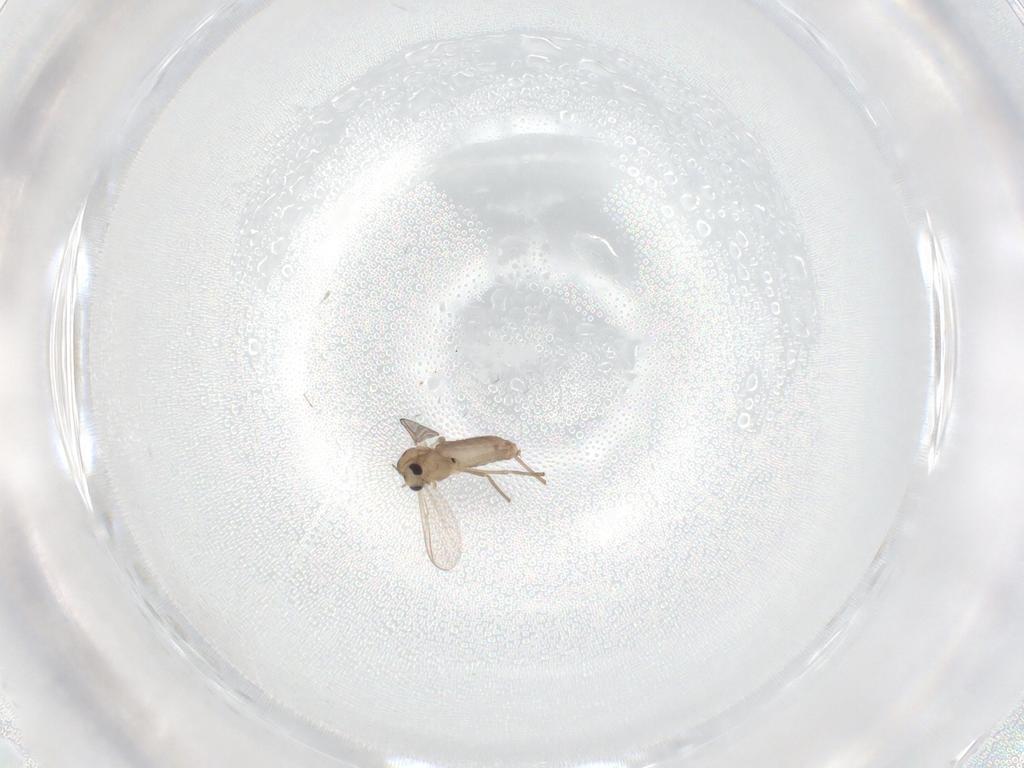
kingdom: Animalia
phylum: Arthropoda
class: Insecta
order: Diptera
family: Chironomidae
